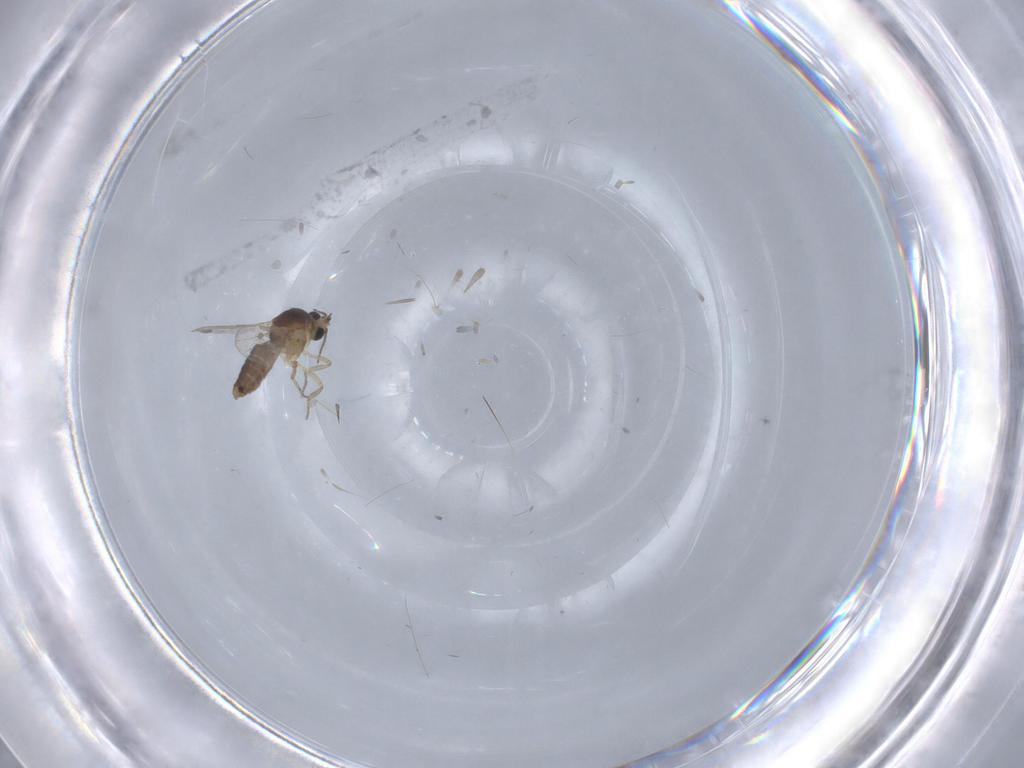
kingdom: Animalia
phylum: Arthropoda
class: Insecta
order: Diptera
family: Ceratopogonidae
